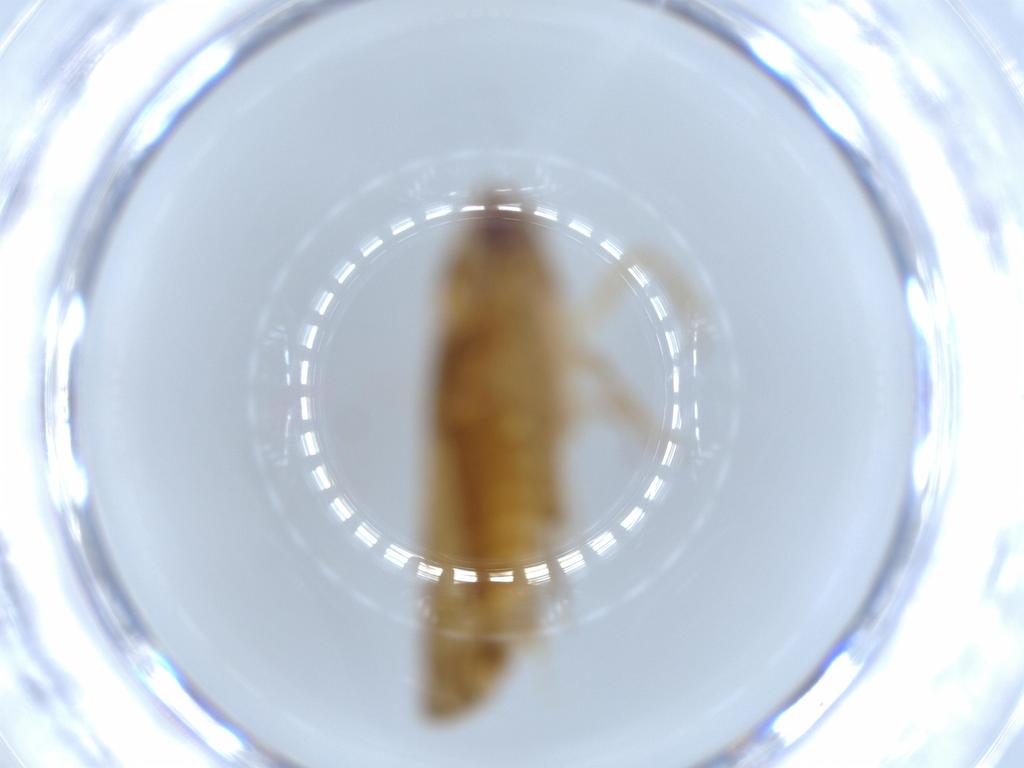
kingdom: Animalia
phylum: Arthropoda
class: Insecta
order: Hemiptera
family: Cicadellidae
